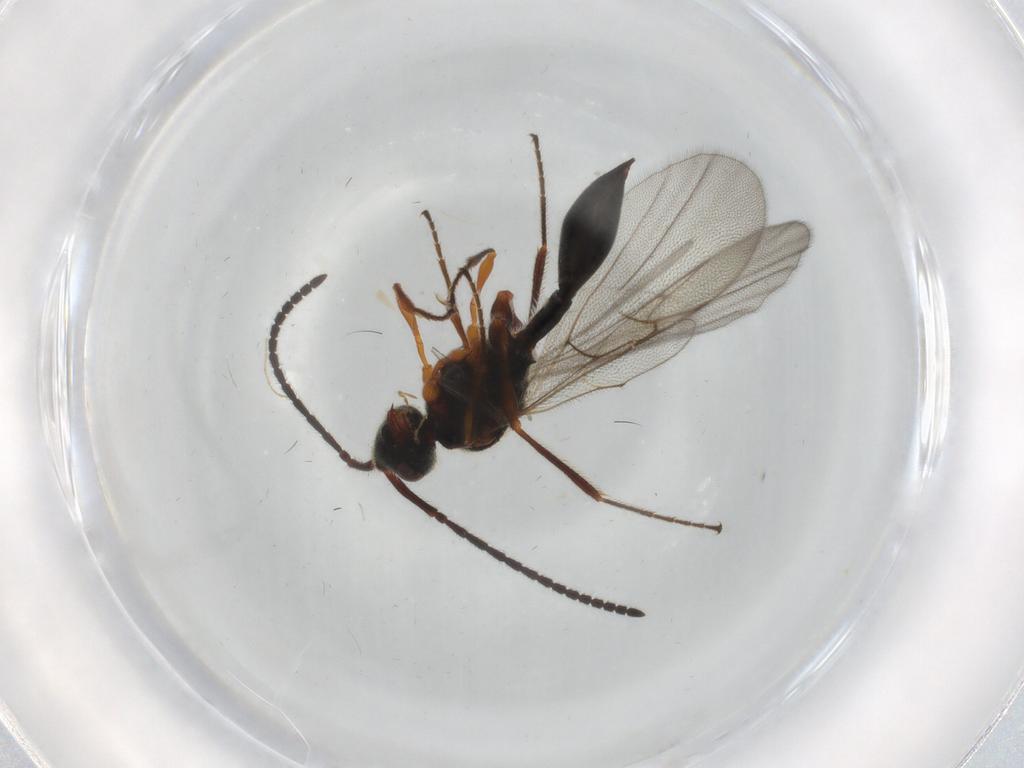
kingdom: Animalia
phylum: Arthropoda
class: Insecta
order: Hymenoptera
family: Diapriidae
